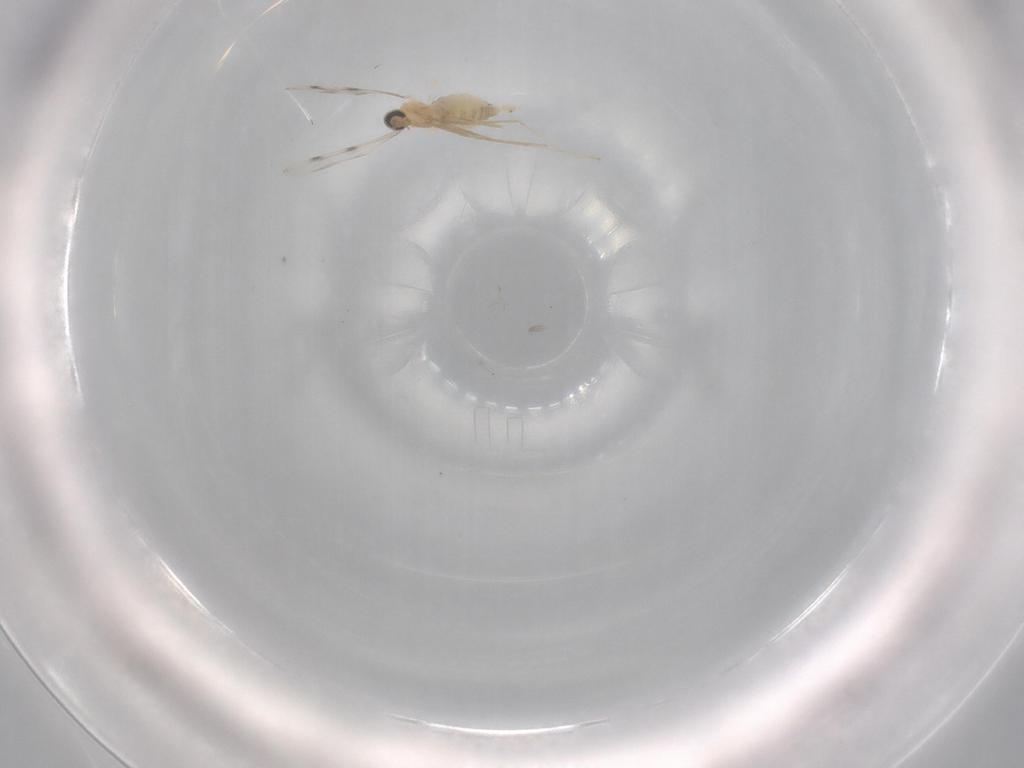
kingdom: Animalia
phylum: Arthropoda
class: Insecta
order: Diptera
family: Cecidomyiidae
